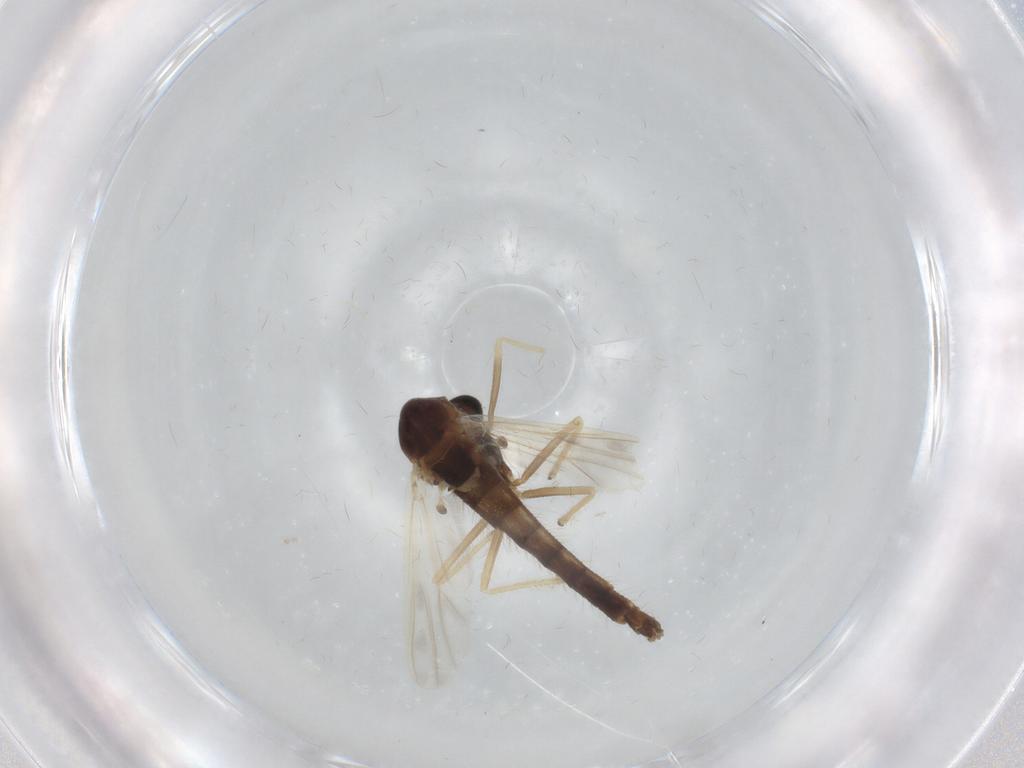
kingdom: Animalia
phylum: Arthropoda
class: Insecta
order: Diptera
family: Chironomidae
